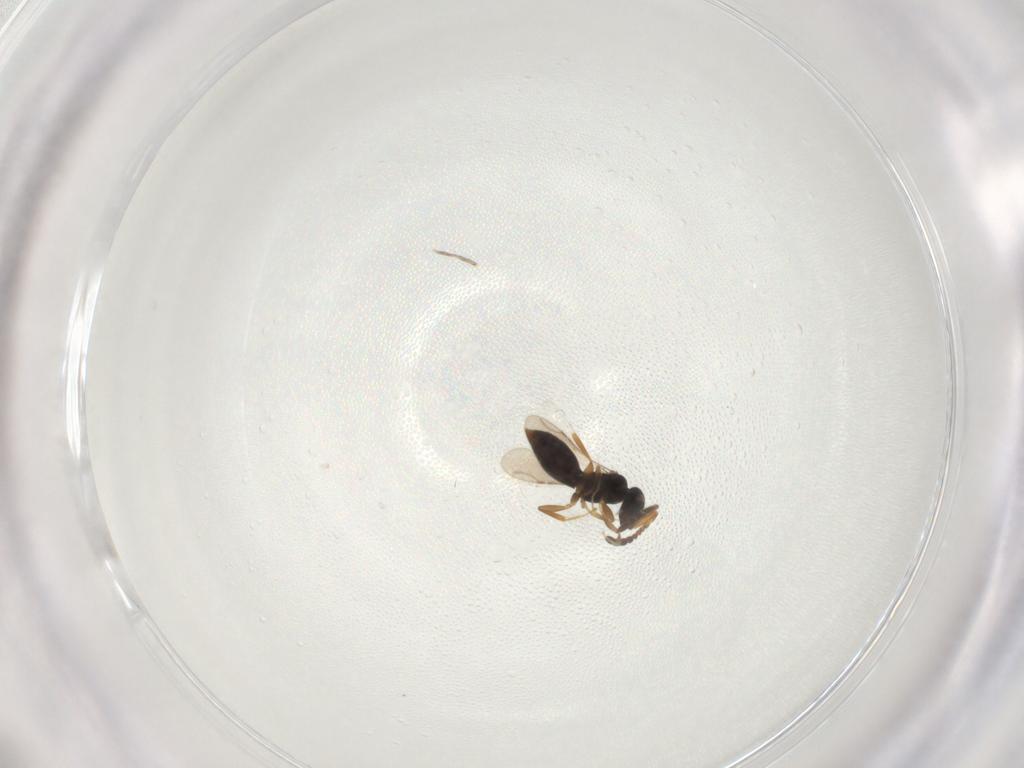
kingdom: Animalia
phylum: Arthropoda
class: Insecta
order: Hymenoptera
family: Ceraphronidae
